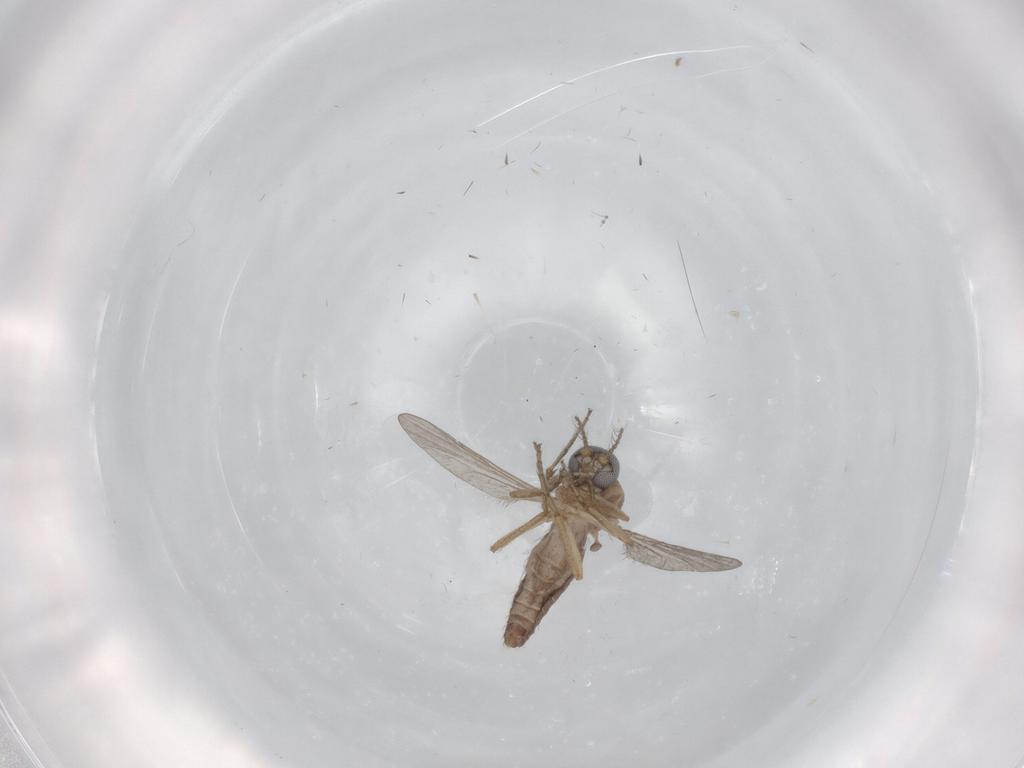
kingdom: Animalia
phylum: Arthropoda
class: Insecta
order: Diptera
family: Ceratopogonidae
